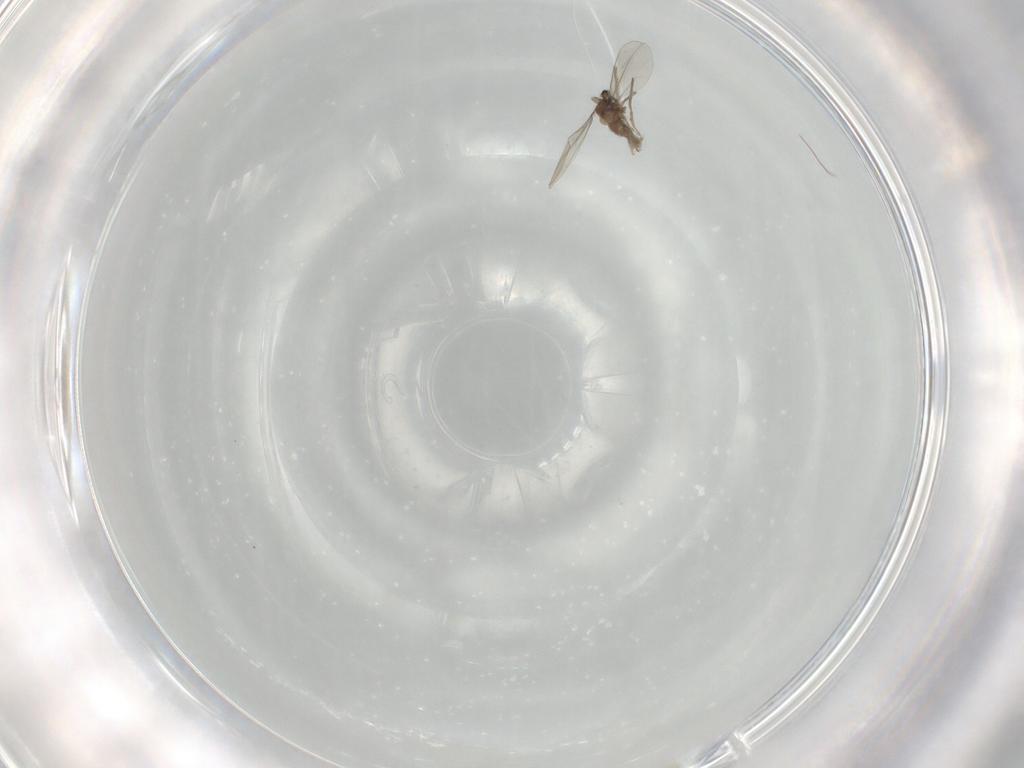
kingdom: Animalia
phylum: Arthropoda
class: Insecta
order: Diptera
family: Cecidomyiidae
